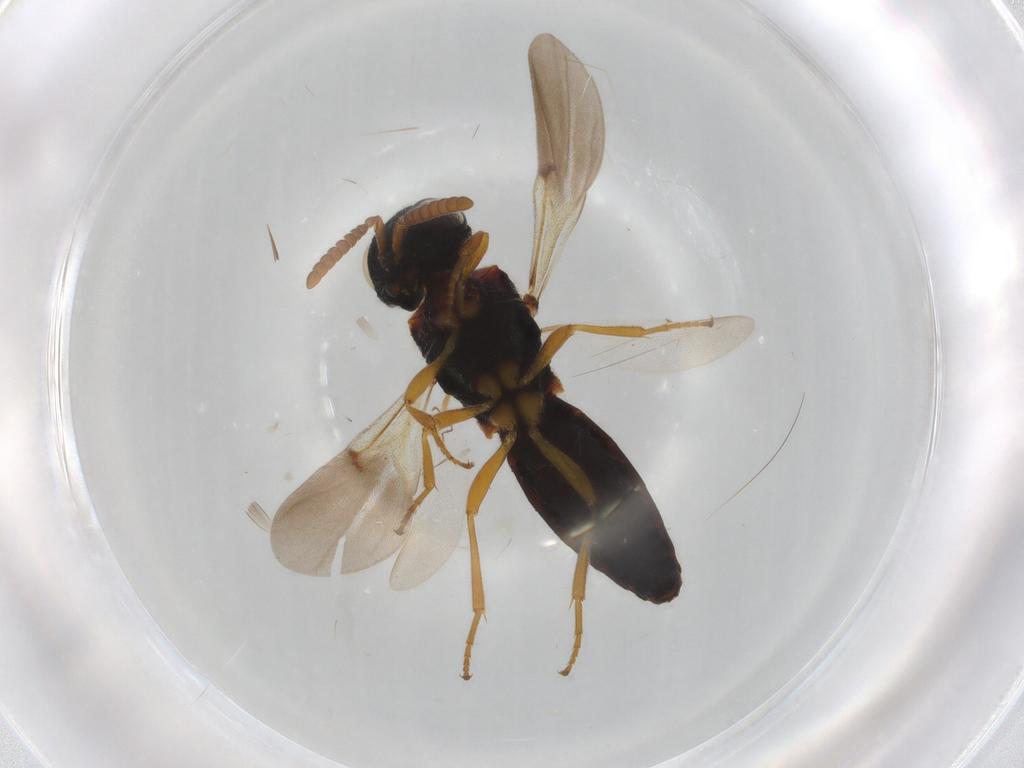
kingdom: Animalia
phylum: Arthropoda
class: Insecta
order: Hymenoptera
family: Scelionidae
